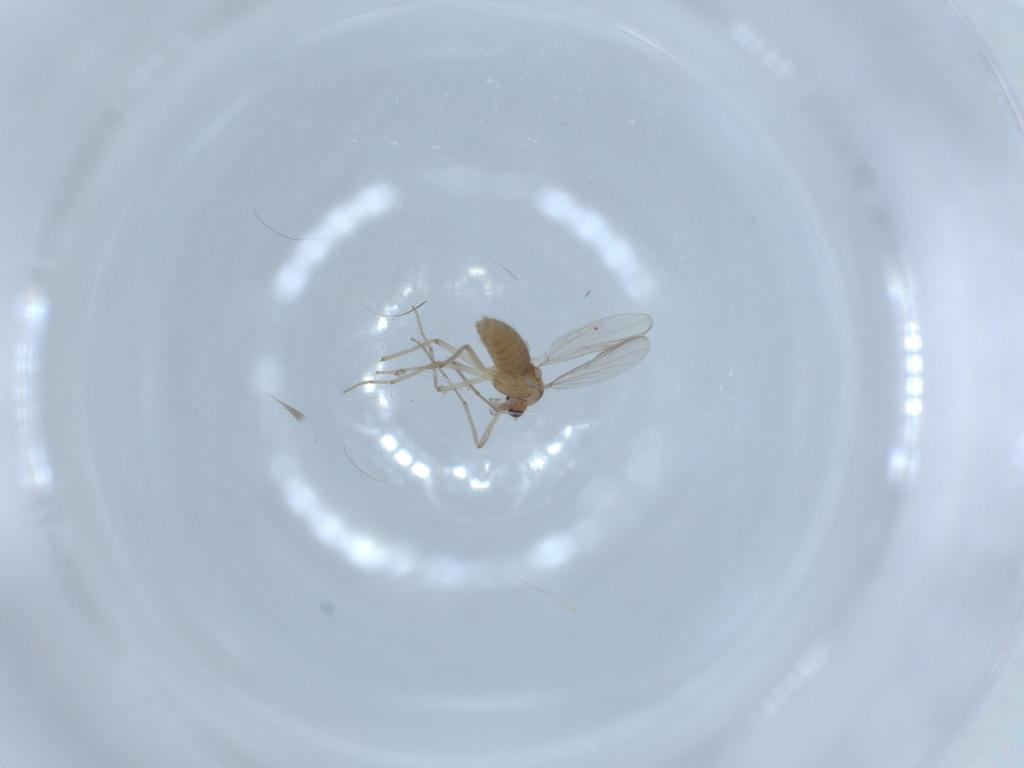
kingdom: Animalia
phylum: Arthropoda
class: Insecta
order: Diptera
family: Chironomidae
